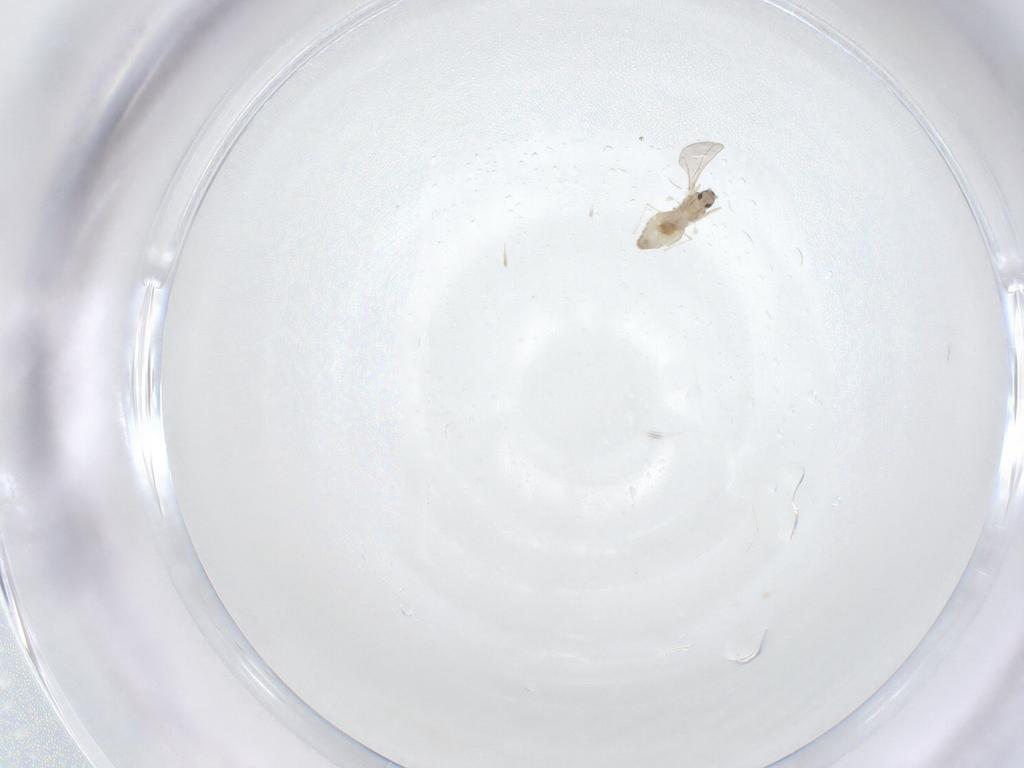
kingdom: Animalia
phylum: Arthropoda
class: Insecta
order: Diptera
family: Cecidomyiidae
